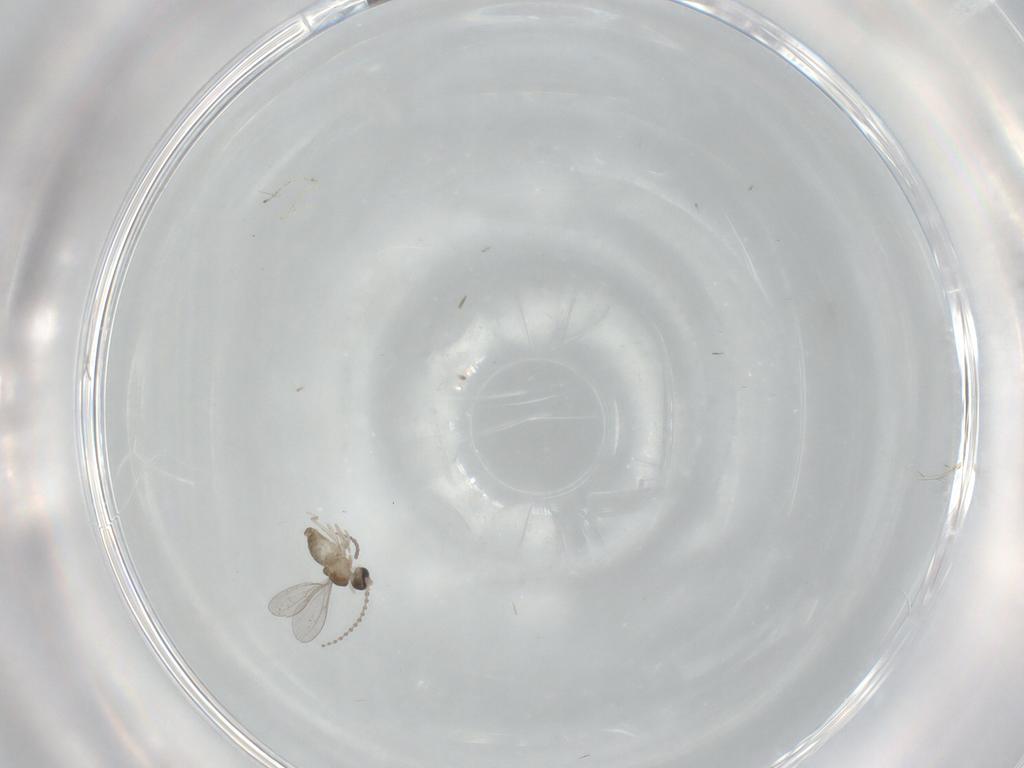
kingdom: Animalia
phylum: Arthropoda
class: Insecta
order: Diptera
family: Cecidomyiidae
